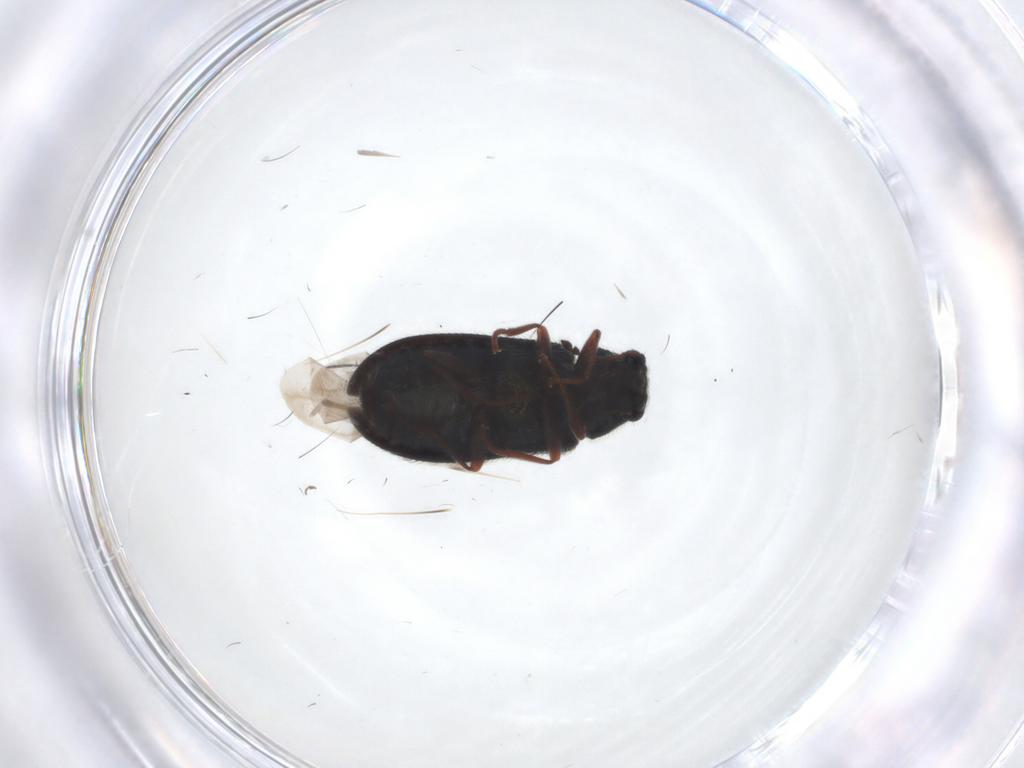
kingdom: Animalia
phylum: Arthropoda
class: Insecta
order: Coleoptera
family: Melyridae
